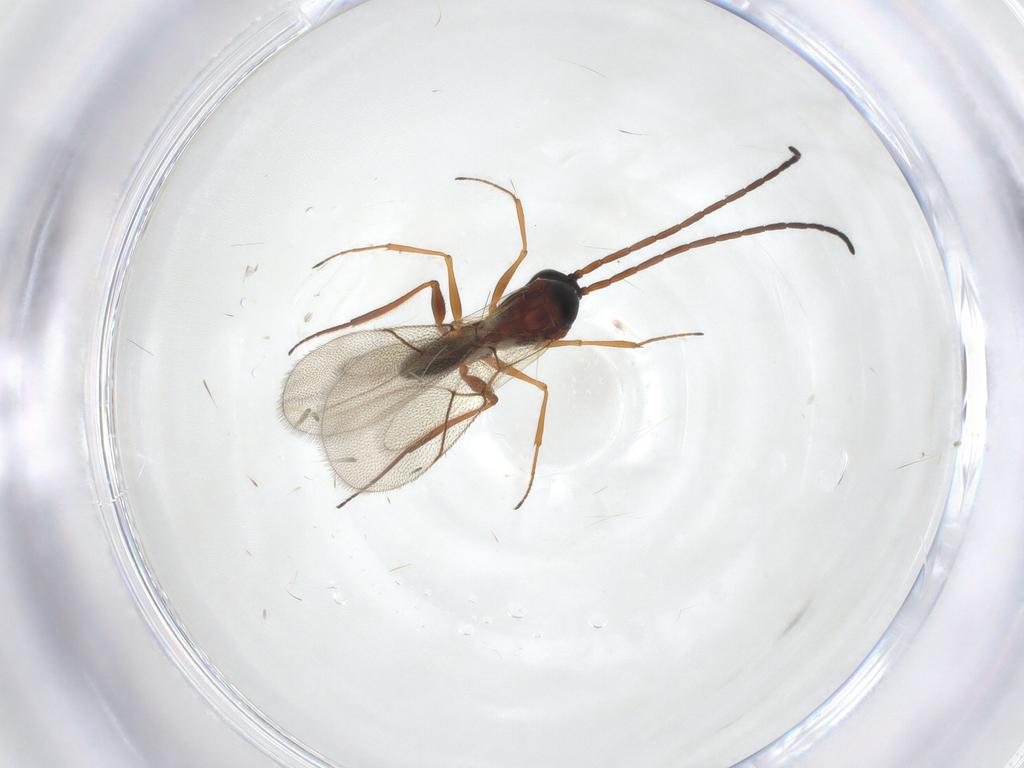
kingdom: Animalia
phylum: Arthropoda
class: Insecta
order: Hymenoptera
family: Figitidae
